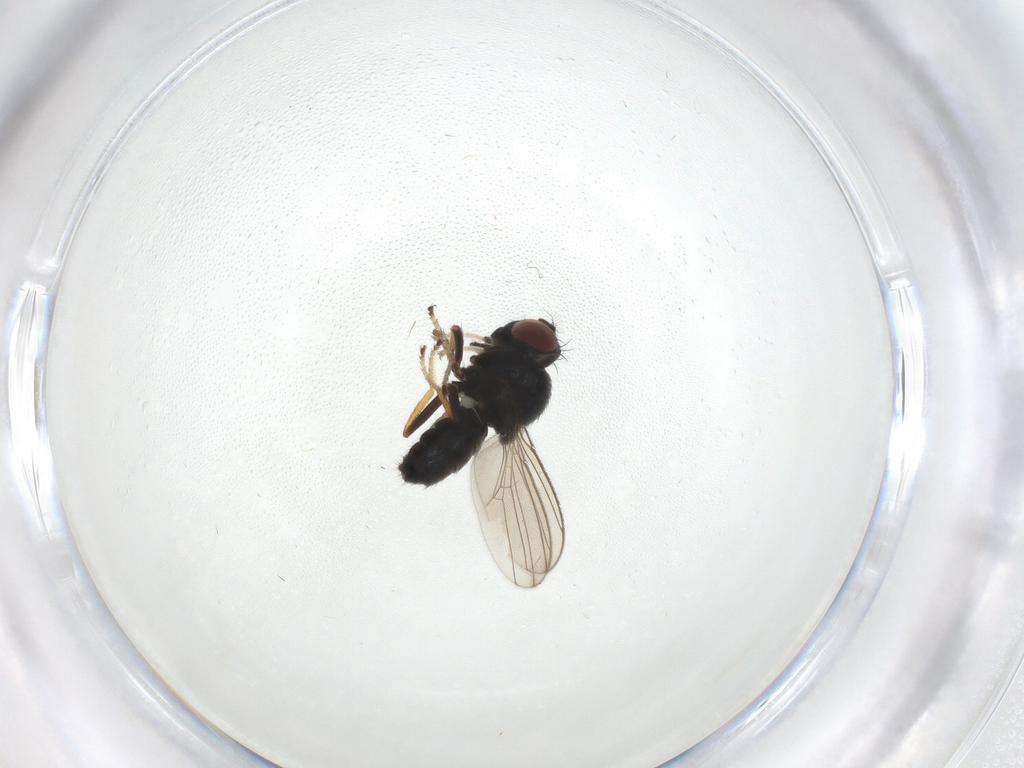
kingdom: Animalia
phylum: Arthropoda
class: Insecta
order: Diptera
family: Ephydridae
